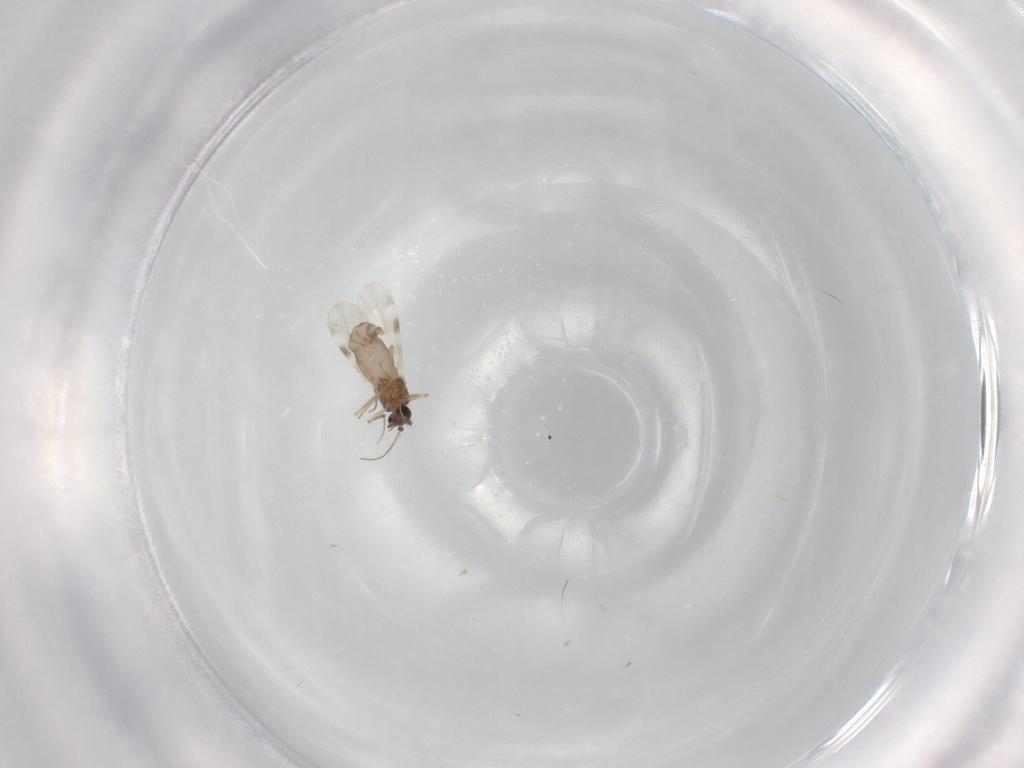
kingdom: Animalia
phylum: Arthropoda
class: Insecta
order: Diptera
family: Ceratopogonidae
